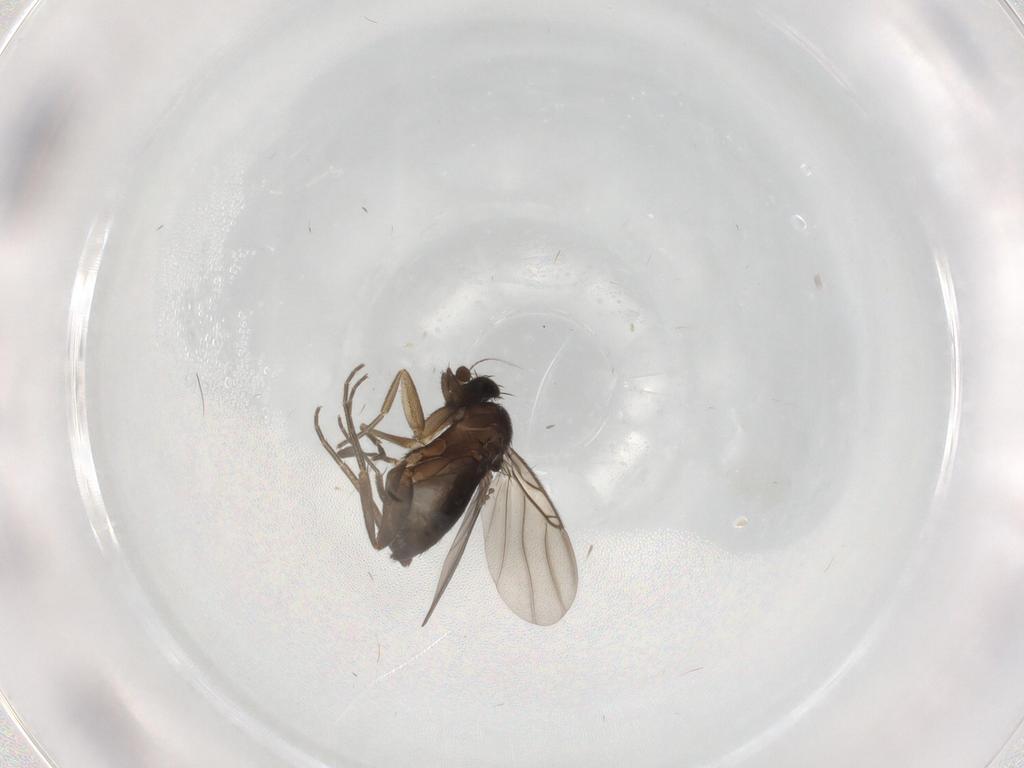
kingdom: Animalia
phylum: Arthropoda
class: Insecta
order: Diptera
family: Phoridae
